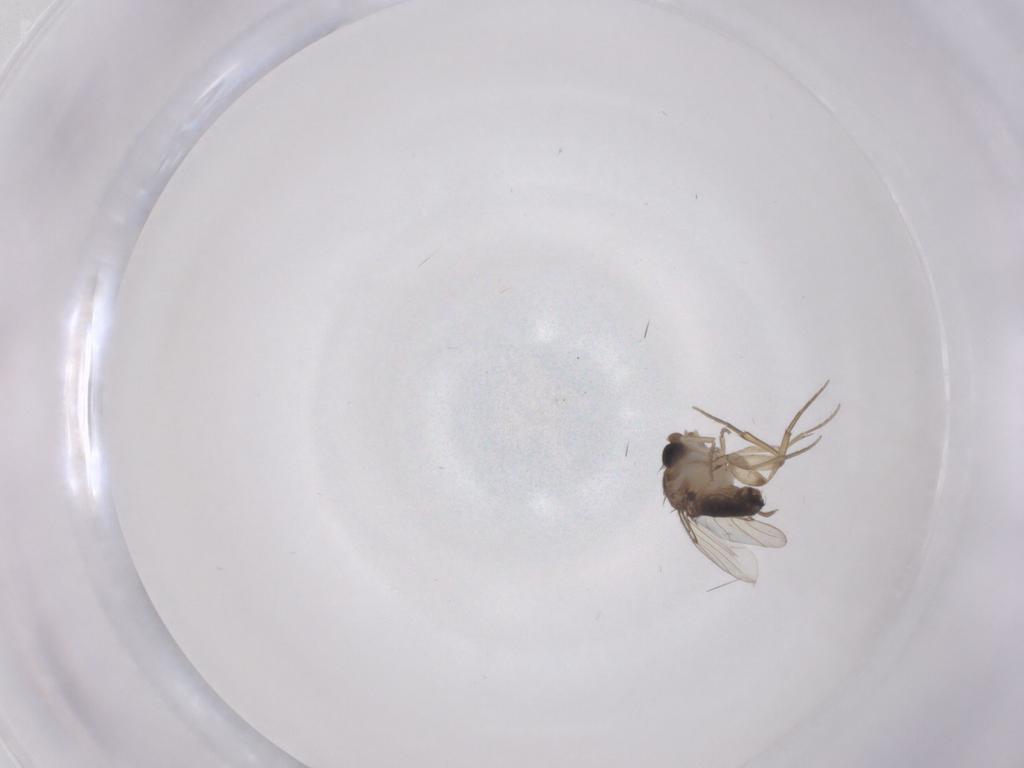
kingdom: Animalia
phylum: Arthropoda
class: Insecta
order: Diptera
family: Phoridae
